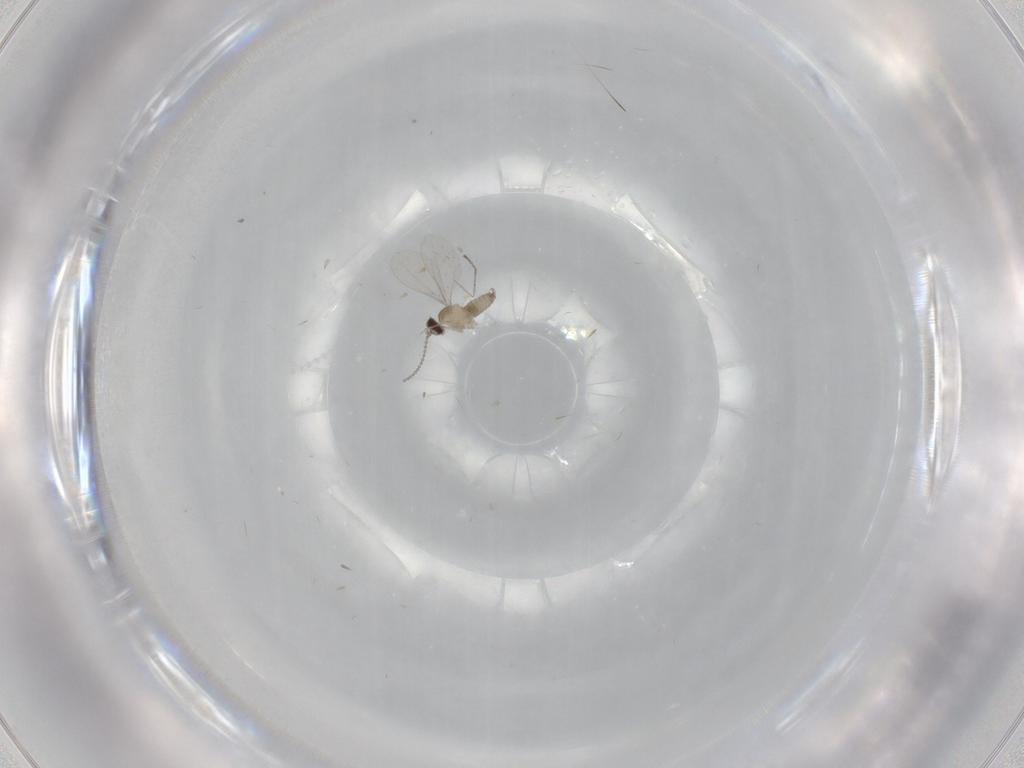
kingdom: Animalia
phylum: Arthropoda
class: Insecta
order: Diptera
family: Cecidomyiidae
